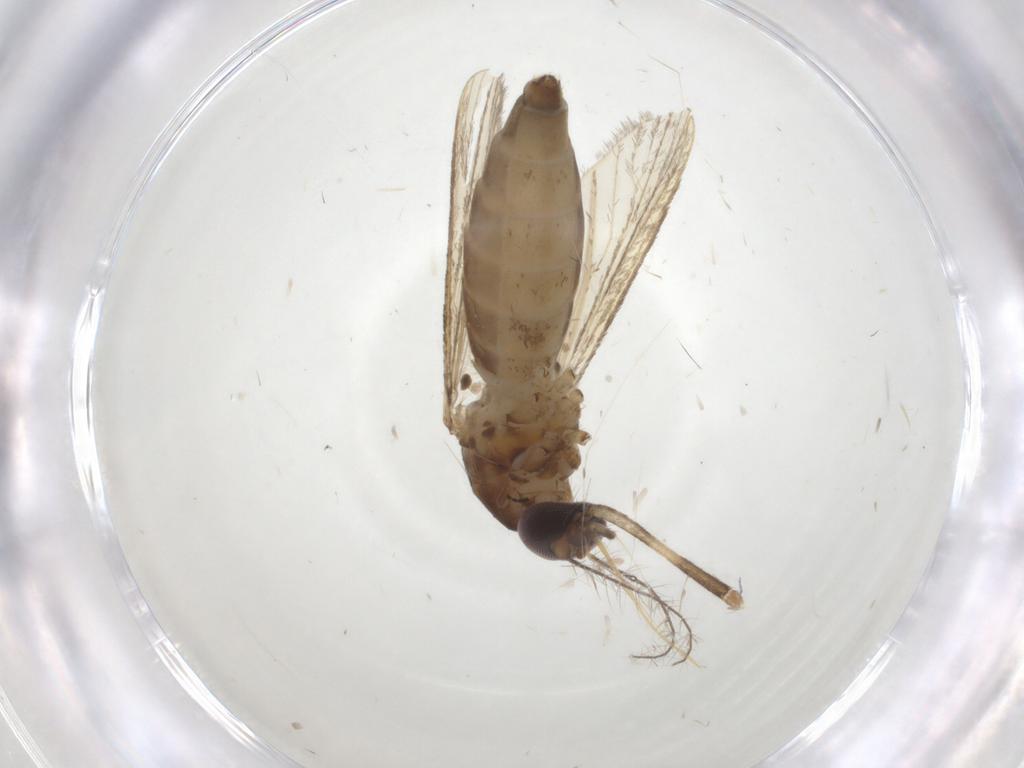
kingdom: Animalia
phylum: Arthropoda
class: Insecta
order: Diptera
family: Ceratopogonidae
